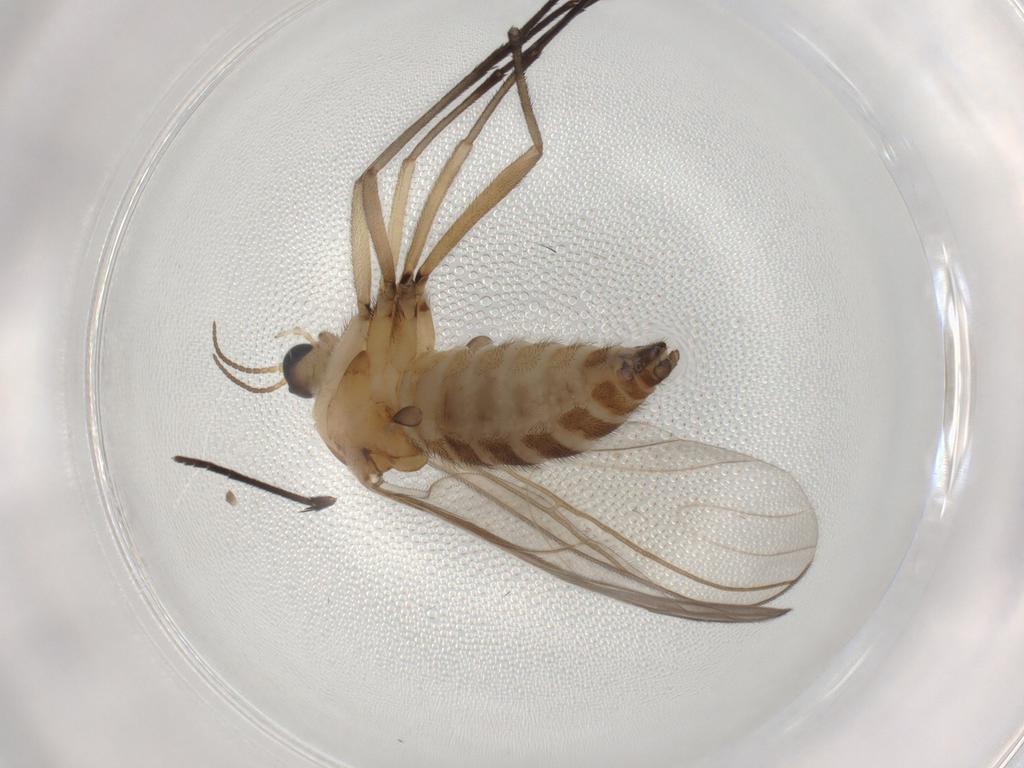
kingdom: Animalia
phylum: Arthropoda
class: Insecta
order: Diptera
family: Sciaridae
